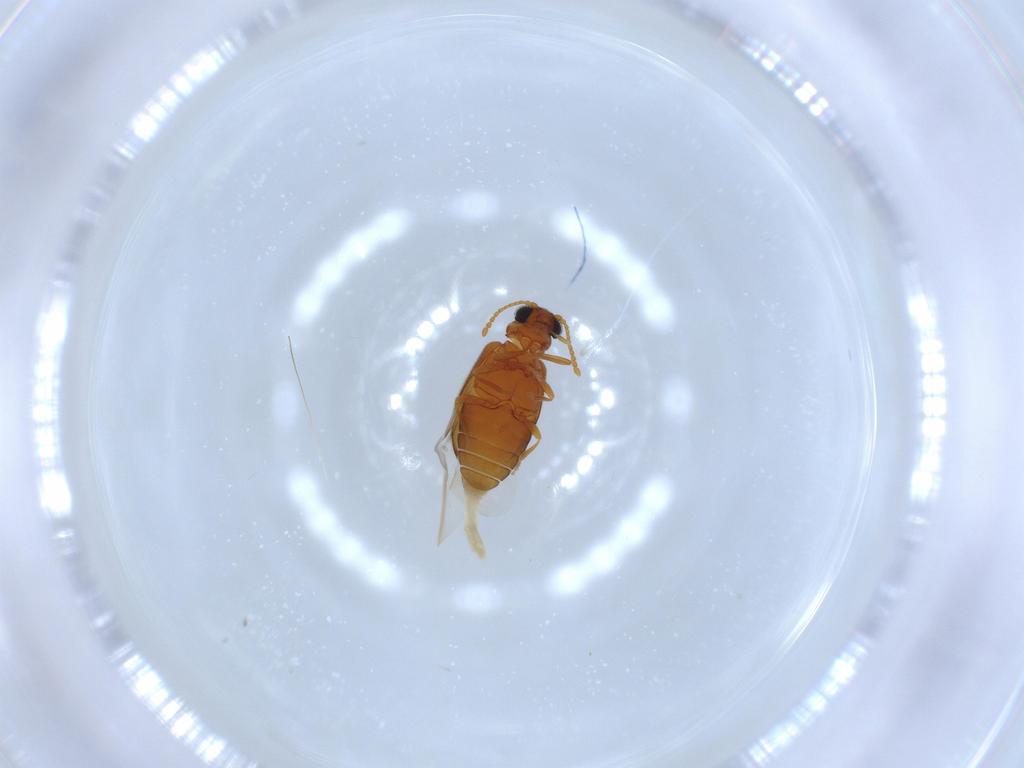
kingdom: Animalia
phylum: Arthropoda
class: Insecta
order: Coleoptera
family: Aderidae
